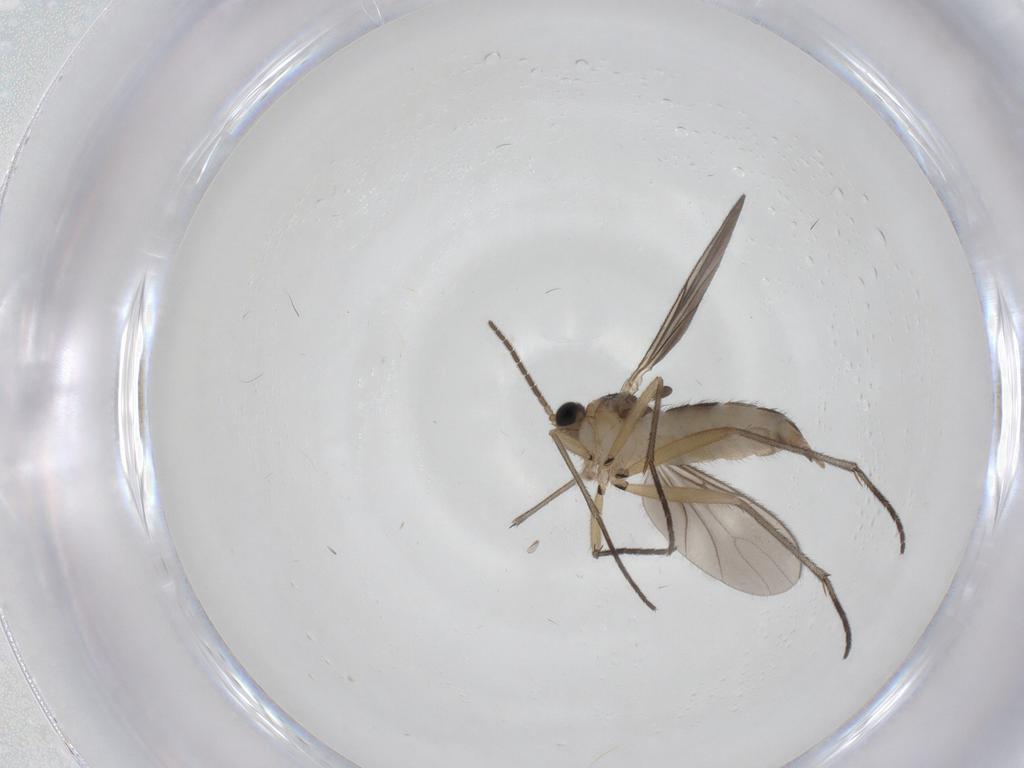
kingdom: Animalia
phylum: Arthropoda
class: Insecta
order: Diptera
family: Sciaridae
